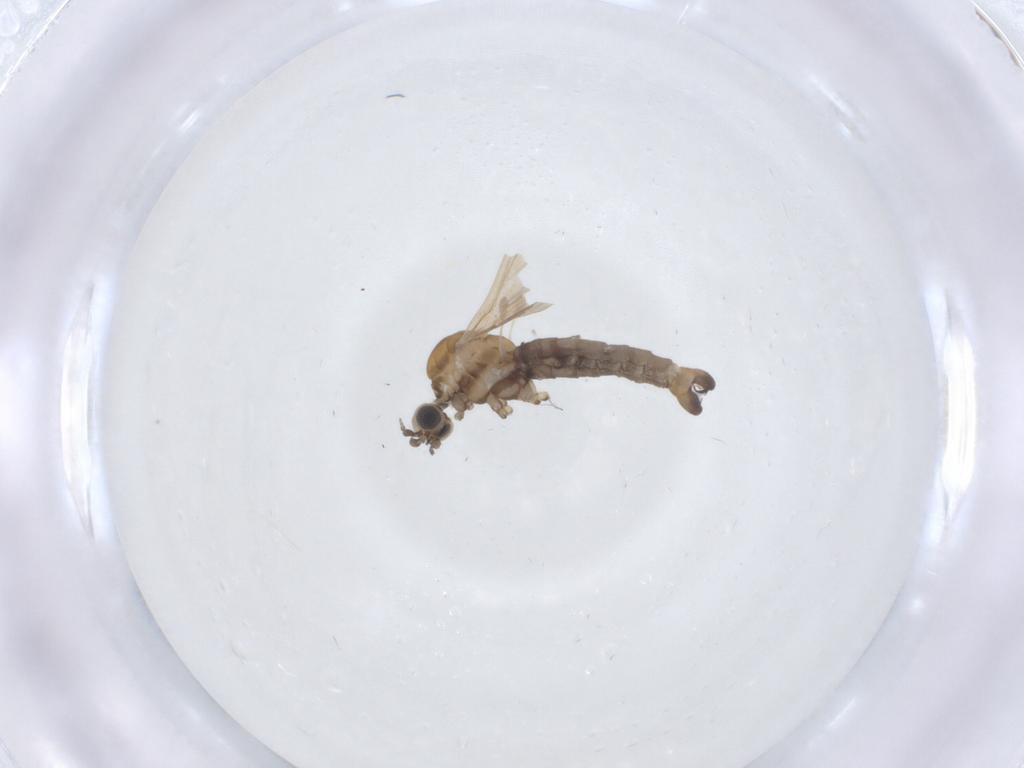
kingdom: Animalia
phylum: Arthropoda
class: Insecta
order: Diptera
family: Limoniidae
